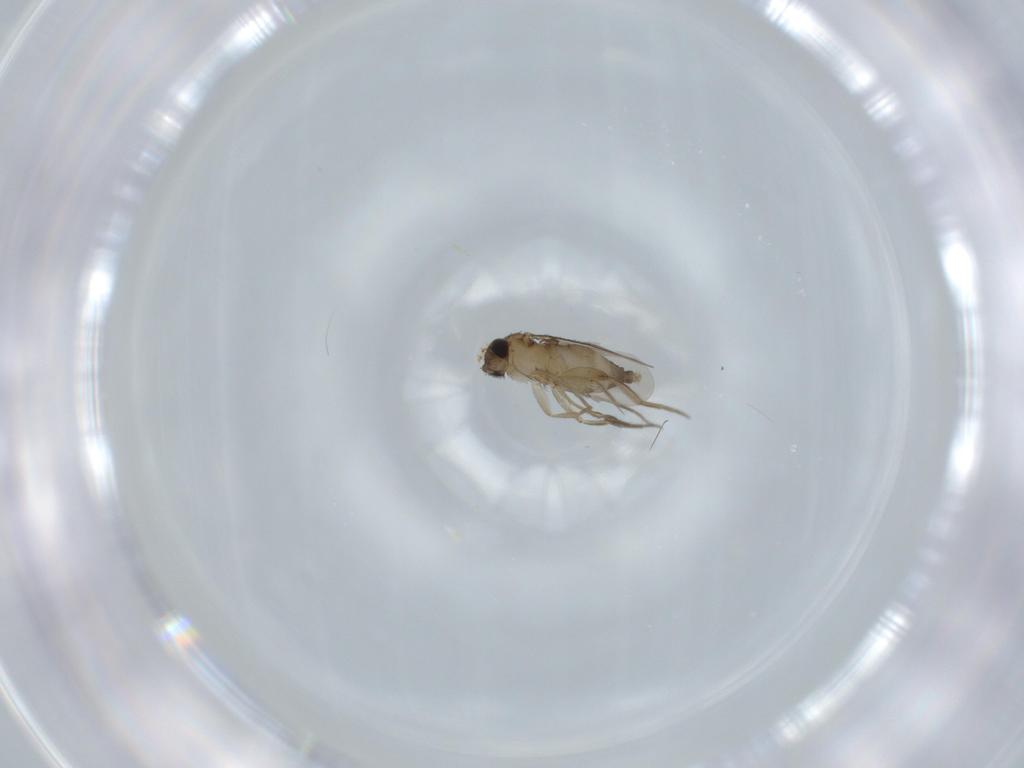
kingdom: Animalia
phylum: Arthropoda
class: Insecta
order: Diptera
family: Phoridae
